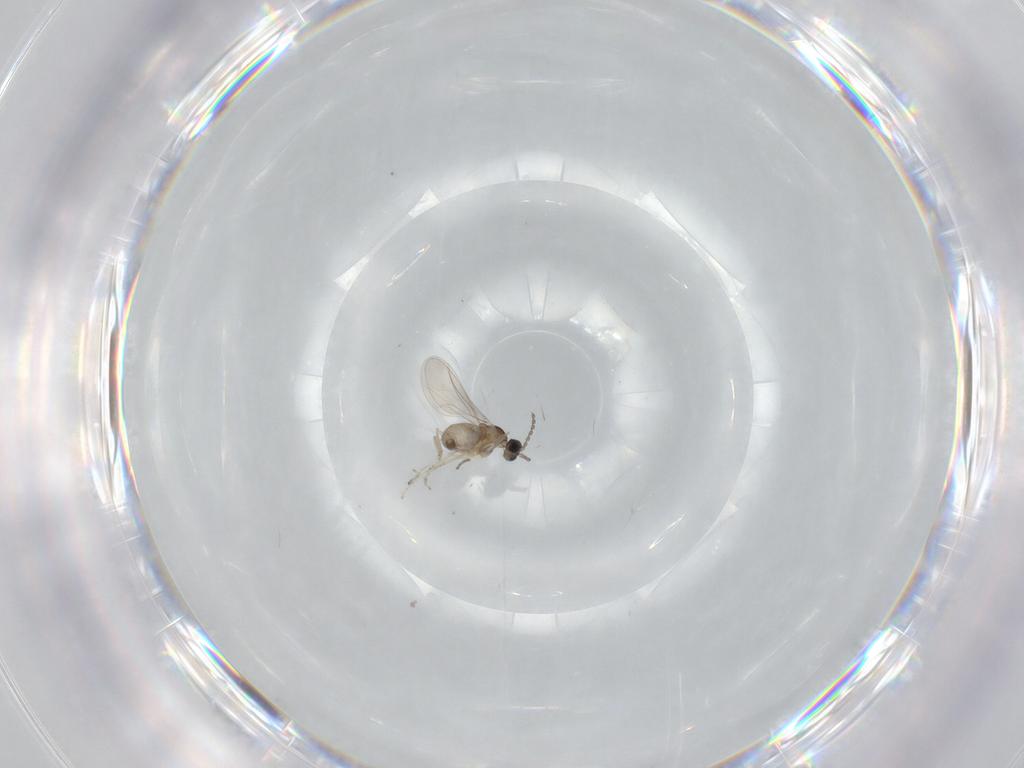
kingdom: Animalia
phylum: Arthropoda
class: Insecta
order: Diptera
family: Cecidomyiidae
